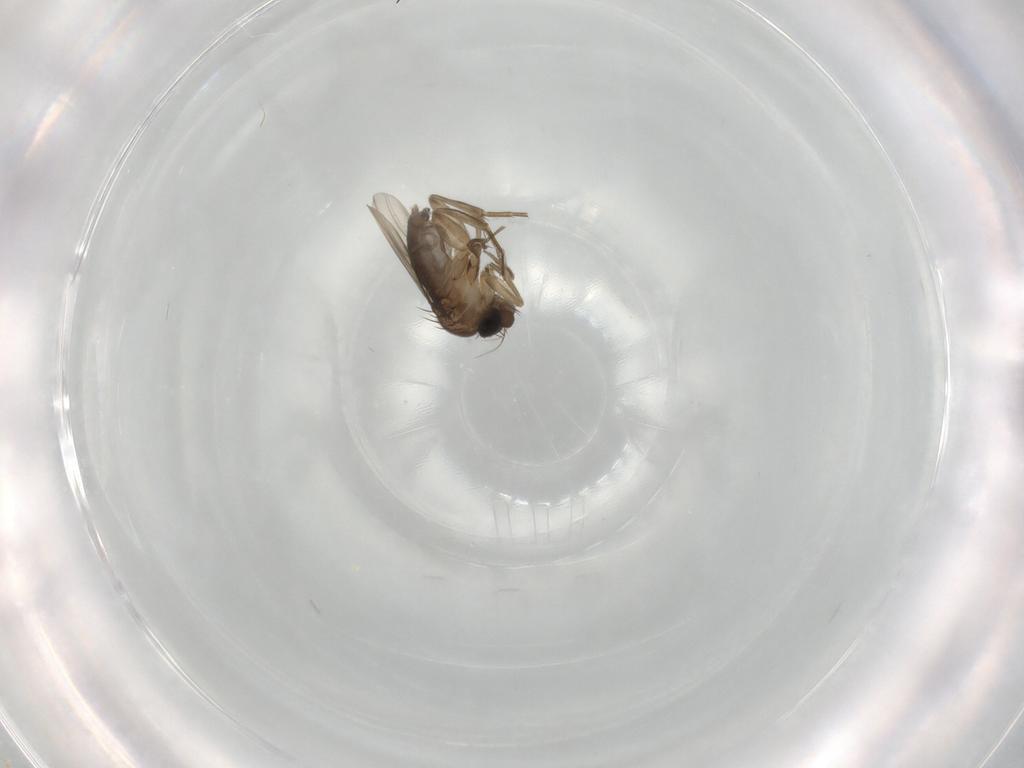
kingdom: Animalia
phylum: Arthropoda
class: Insecta
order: Diptera
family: Phoridae
